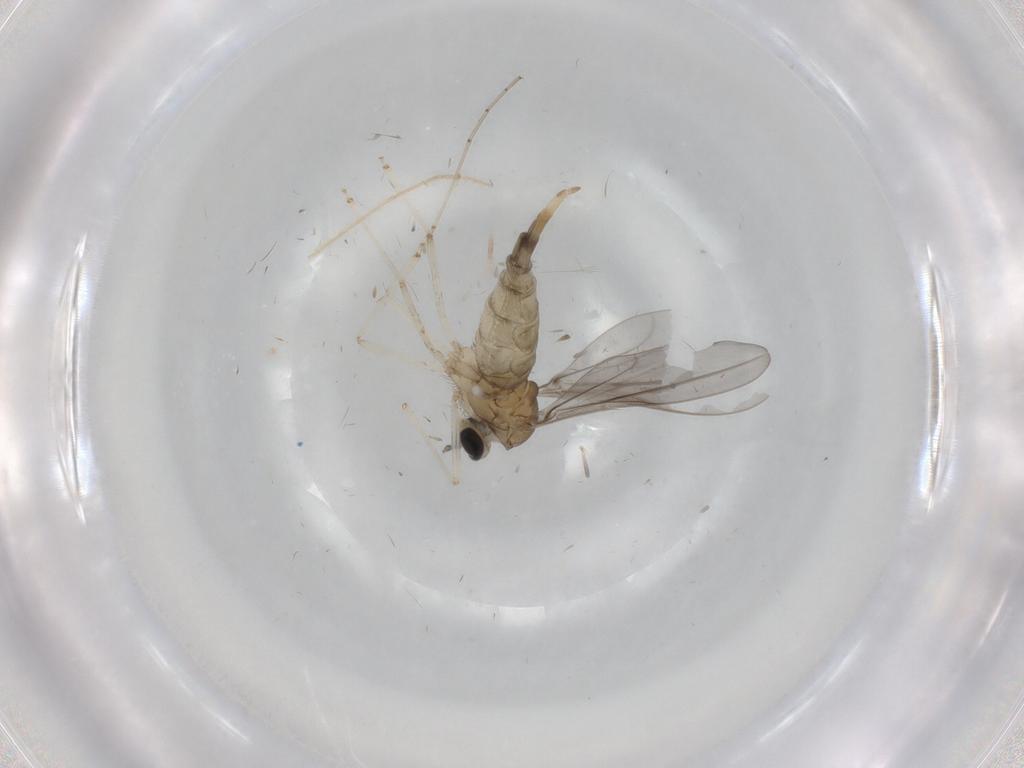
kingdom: Animalia
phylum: Arthropoda
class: Insecta
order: Diptera
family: Cecidomyiidae
